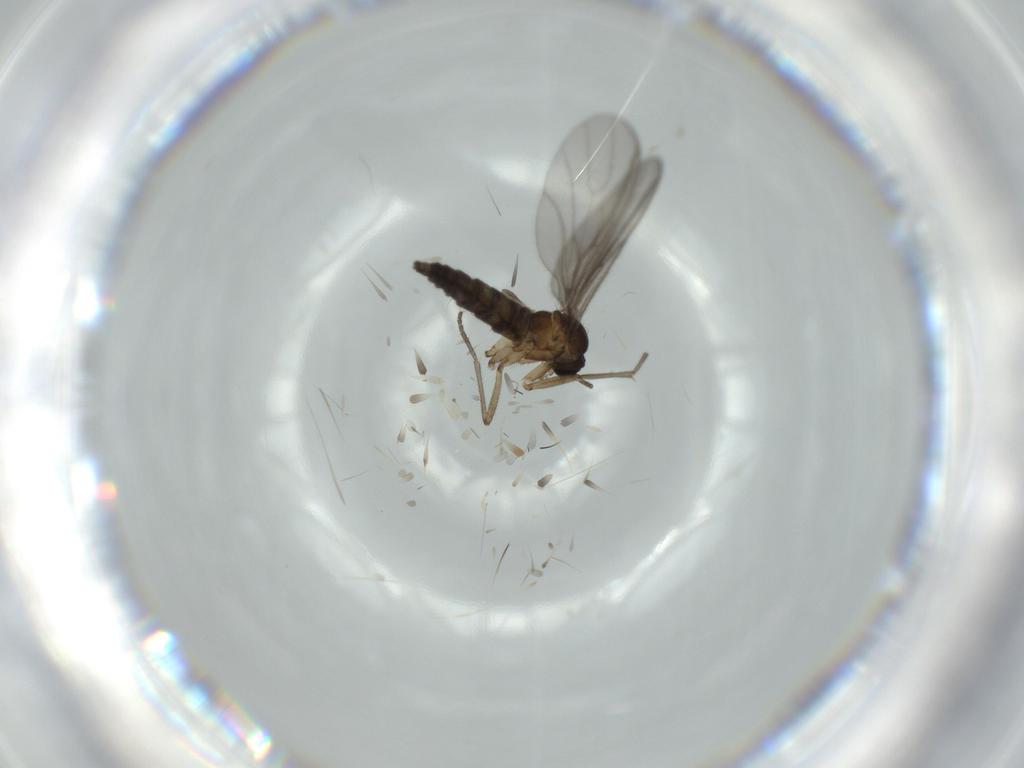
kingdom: Animalia
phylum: Arthropoda
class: Insecta
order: Diptera
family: Sciaridae
